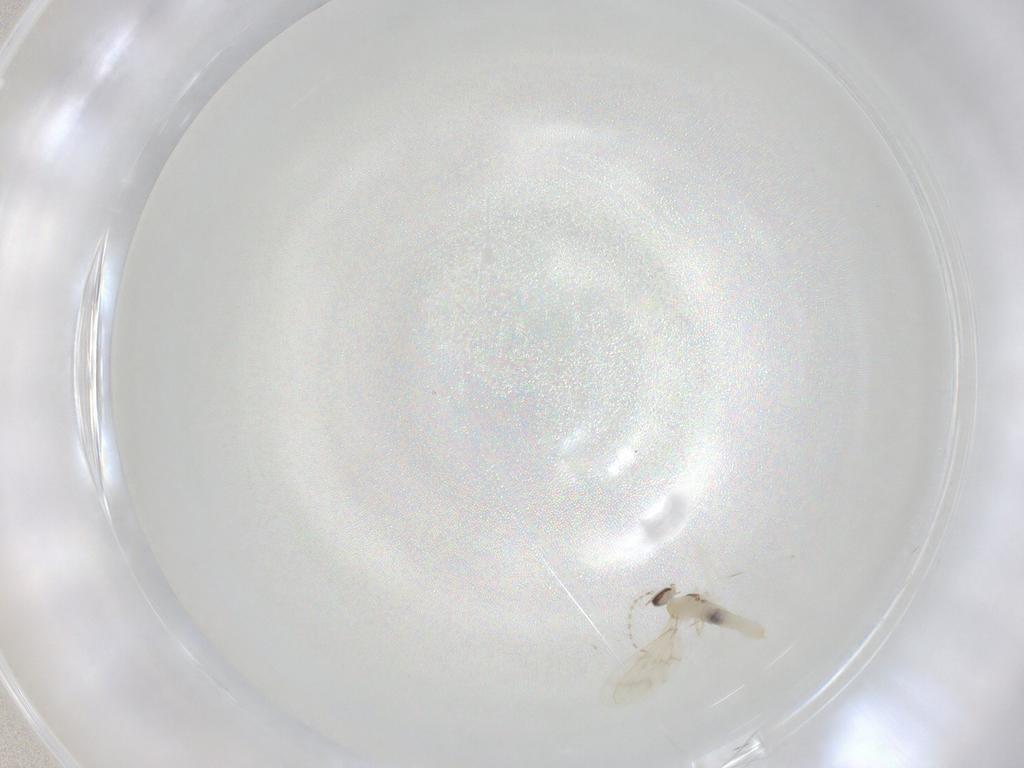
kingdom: Animalia
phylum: Arthropoda
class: Insecta
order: Diptera
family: Cecidomyiidae
